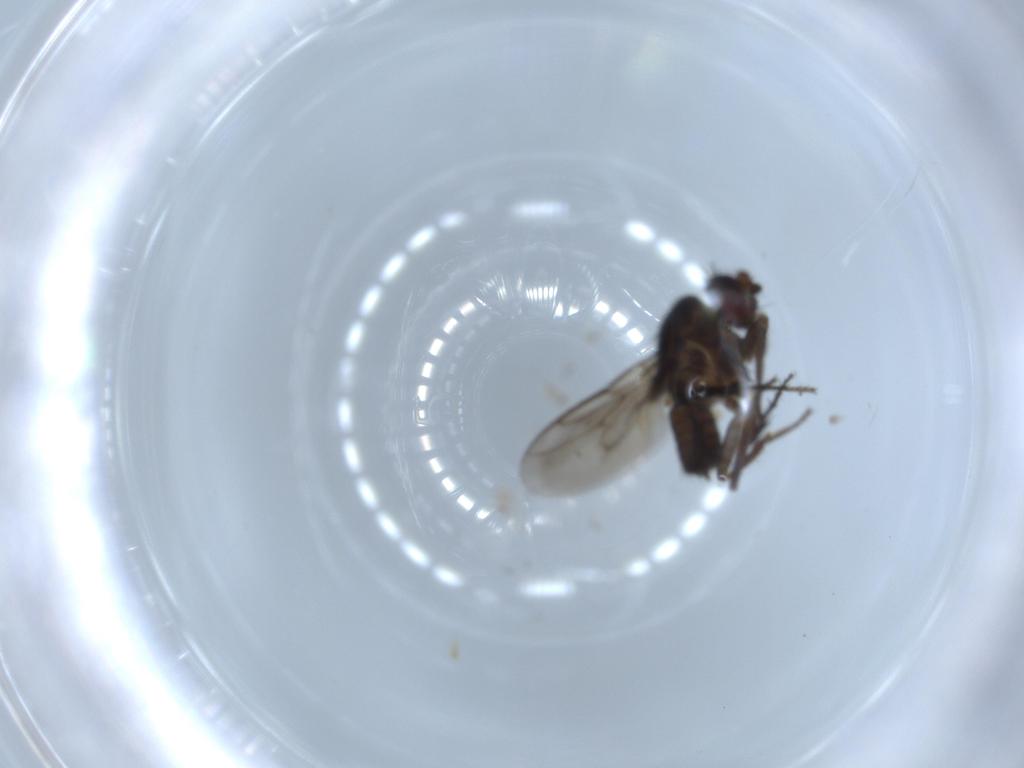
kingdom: Animalia
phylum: Arthropoda
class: Insecta
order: Diptera
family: Sphaeroceridae
